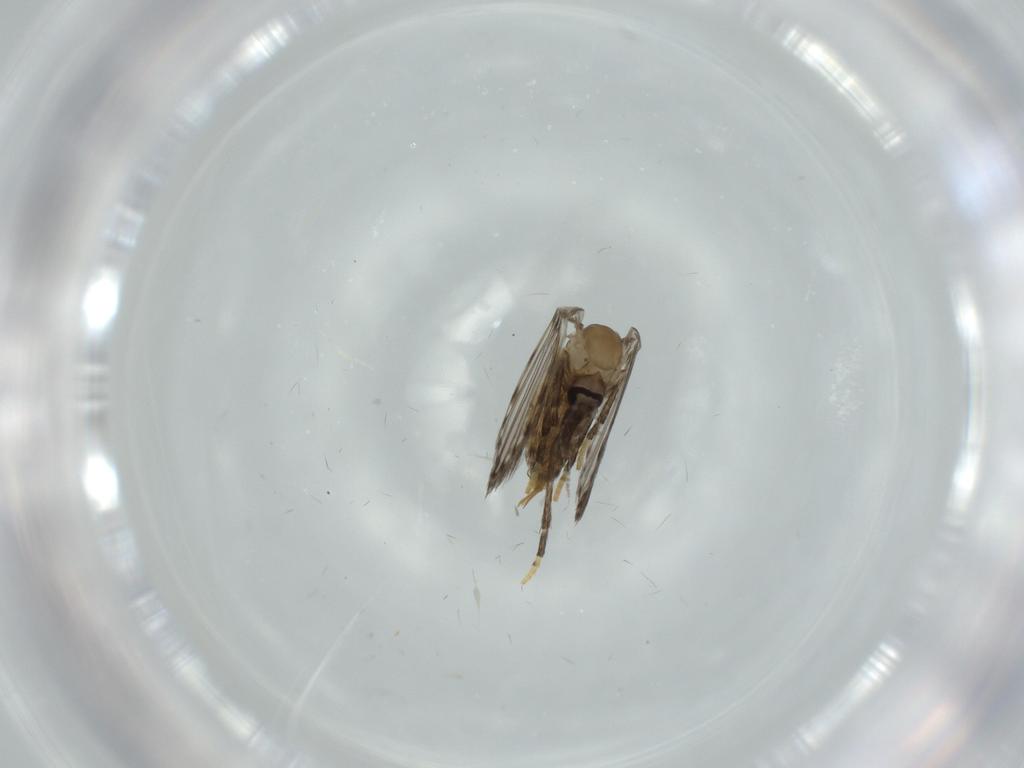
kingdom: Animalia
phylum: Arthropoda
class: Insecta
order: Diptera
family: Psychodidae
